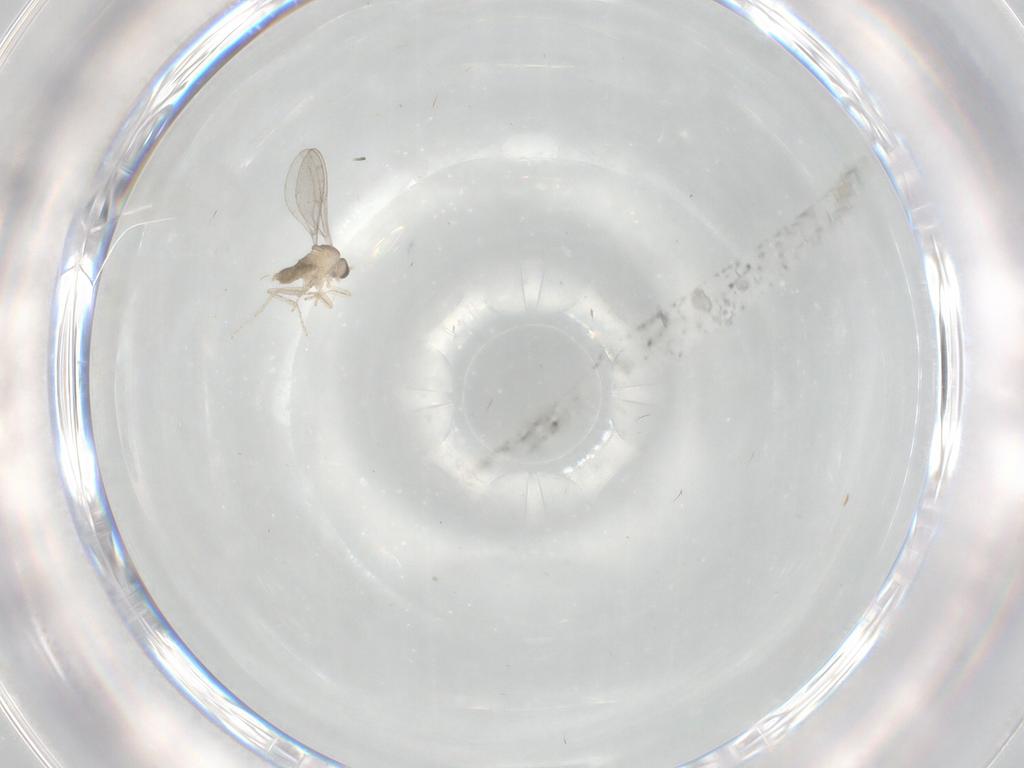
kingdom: Animalia
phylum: Arthropoda
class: Insecta
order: Diptera
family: Cecidomyiidae
